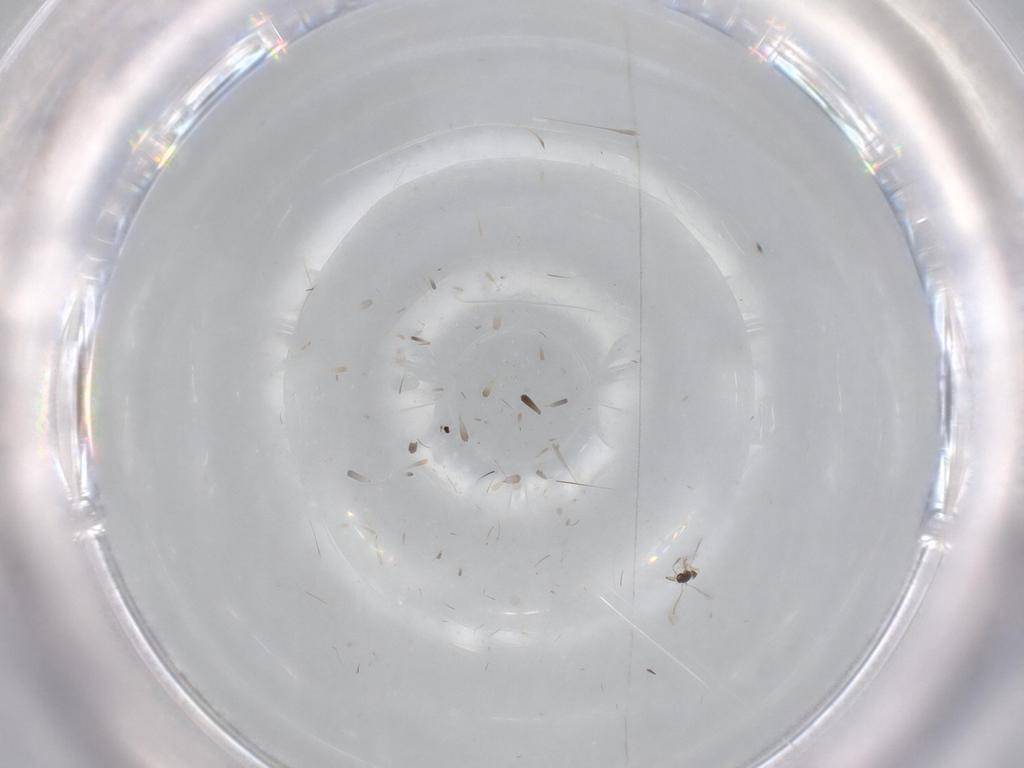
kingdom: Animalia
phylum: Arthropoda
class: Insecta
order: Hymenoptera
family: Mymaridae
